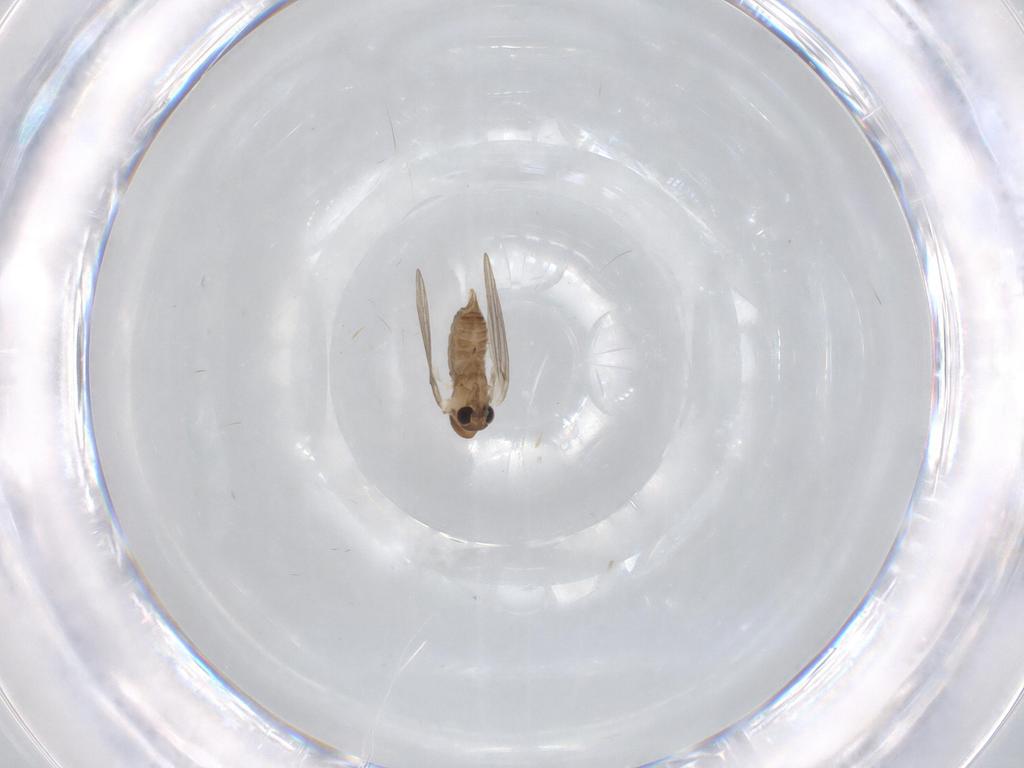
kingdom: Animalia
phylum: Arthropoda
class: Insecta
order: Diptera
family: Psychodidae
